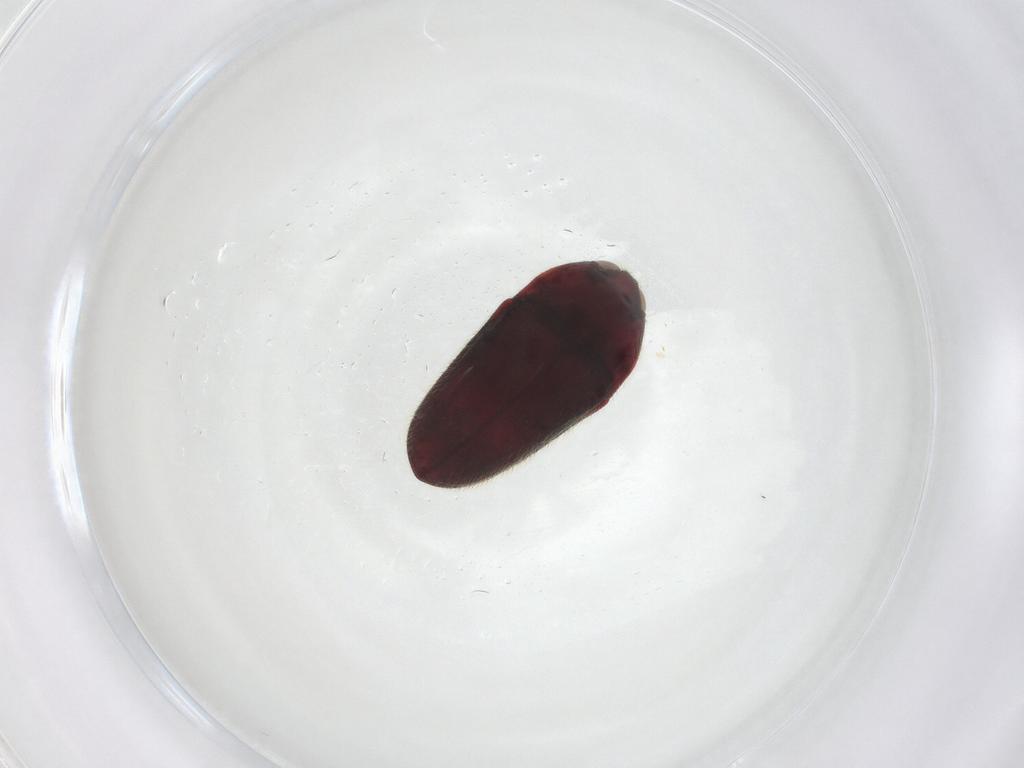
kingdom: Animalia
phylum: Arthropoda
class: Insecta
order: Coleoptera
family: Throscidae
